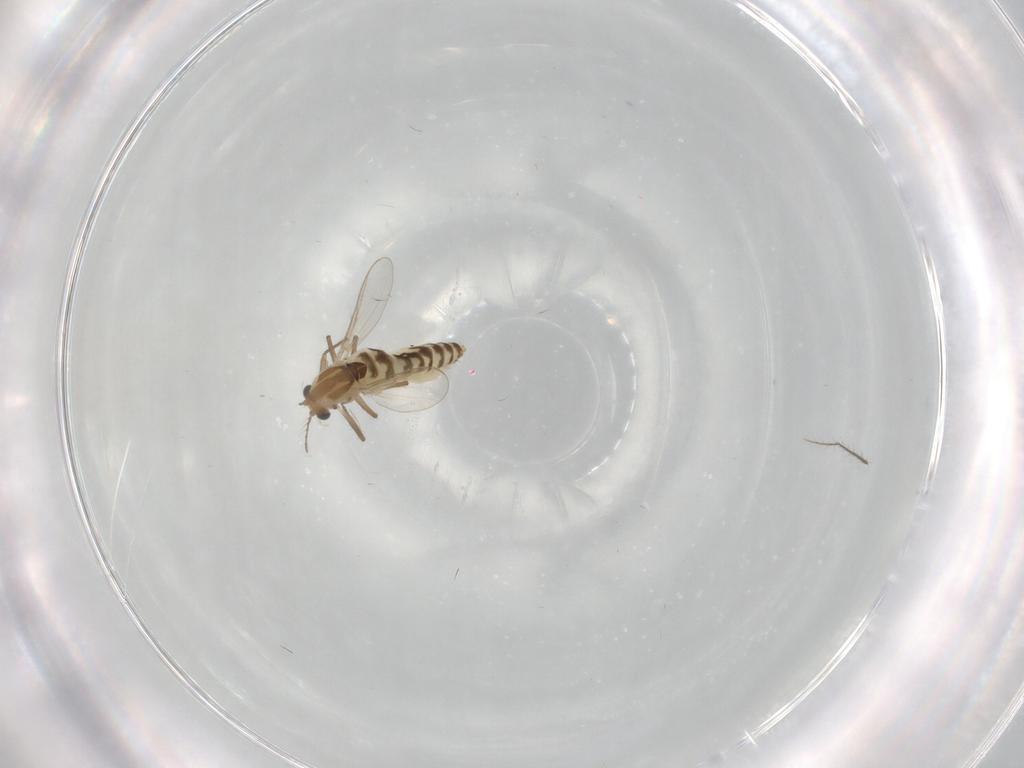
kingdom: Animalia
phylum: Arthropoda
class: Insecta
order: Diptera
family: Chironomidae
